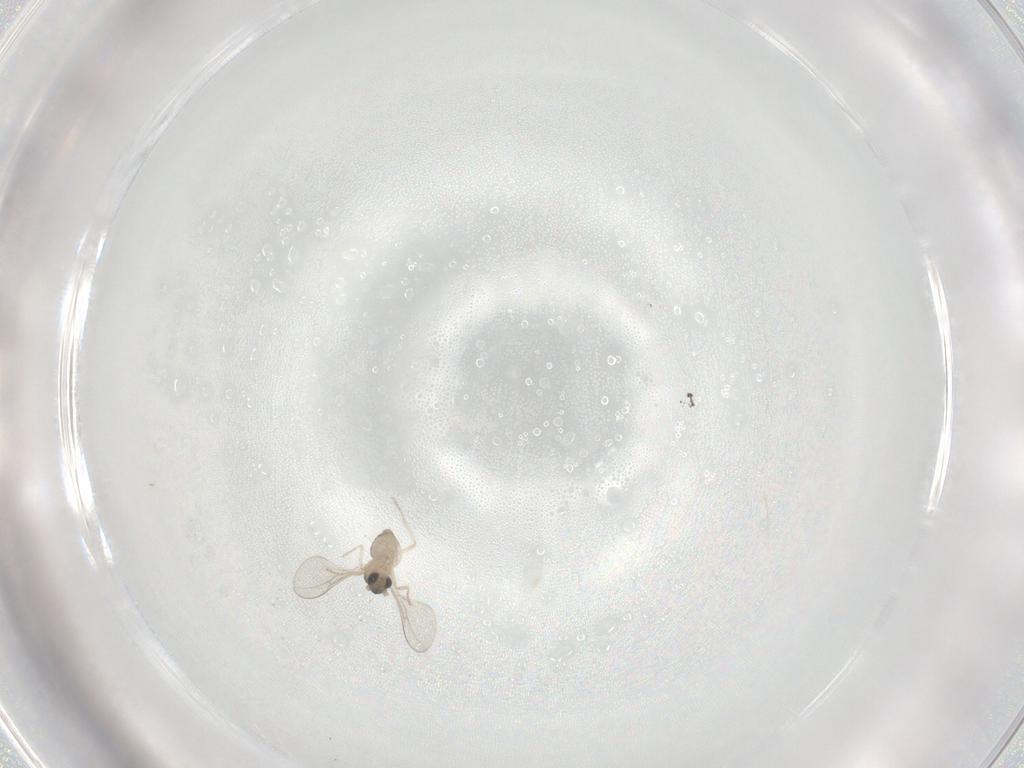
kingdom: Animalia
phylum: Arthropoda
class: Insecta
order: Diptera
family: Cecidomyiidae
